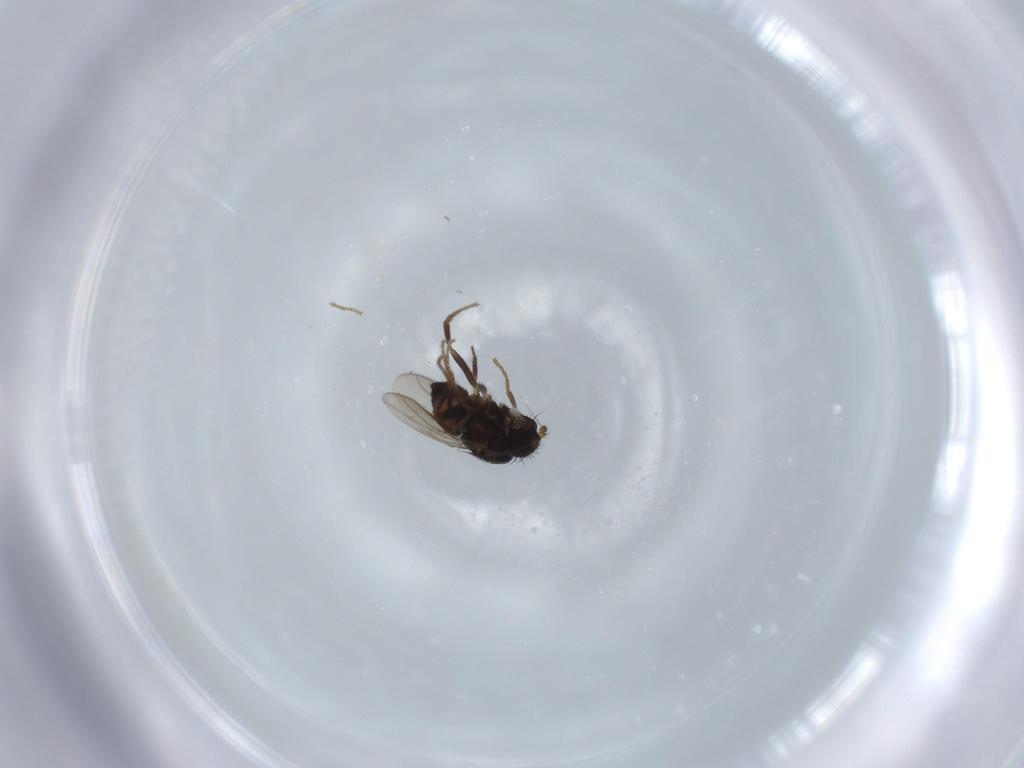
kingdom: Animalia
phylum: Arthropoda
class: Insecta
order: Diptera
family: Sphaeroceridae
